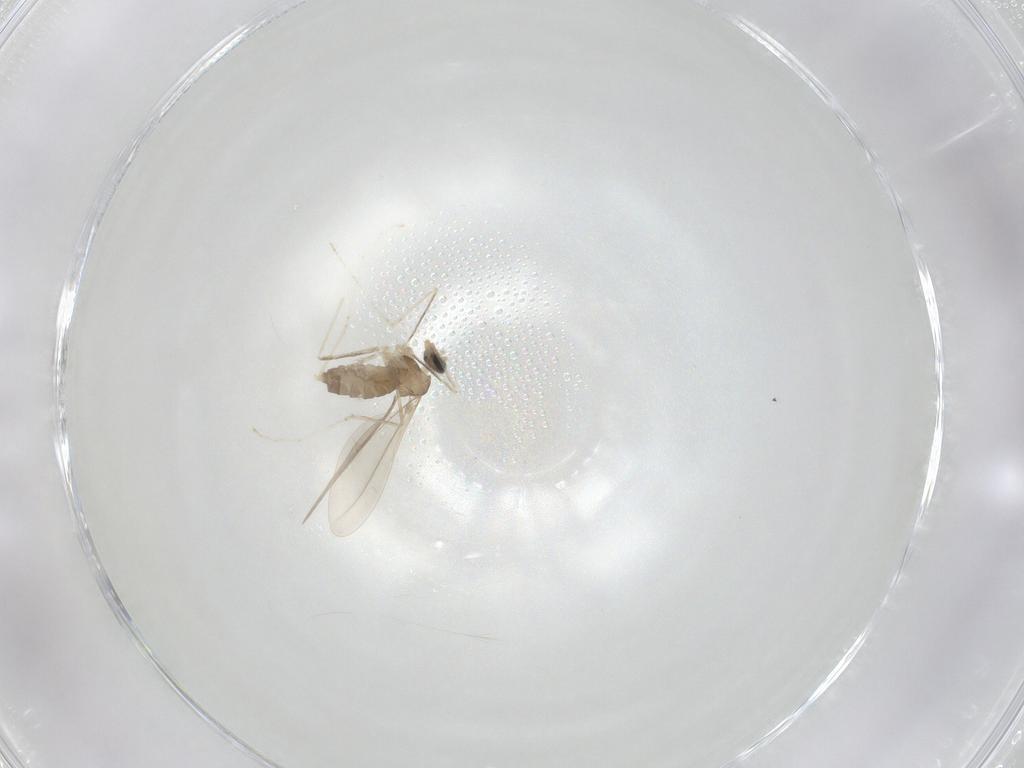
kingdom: Animalia
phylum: Arthropoda
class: Insecta
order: Diptera
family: Cecidomyiidae
